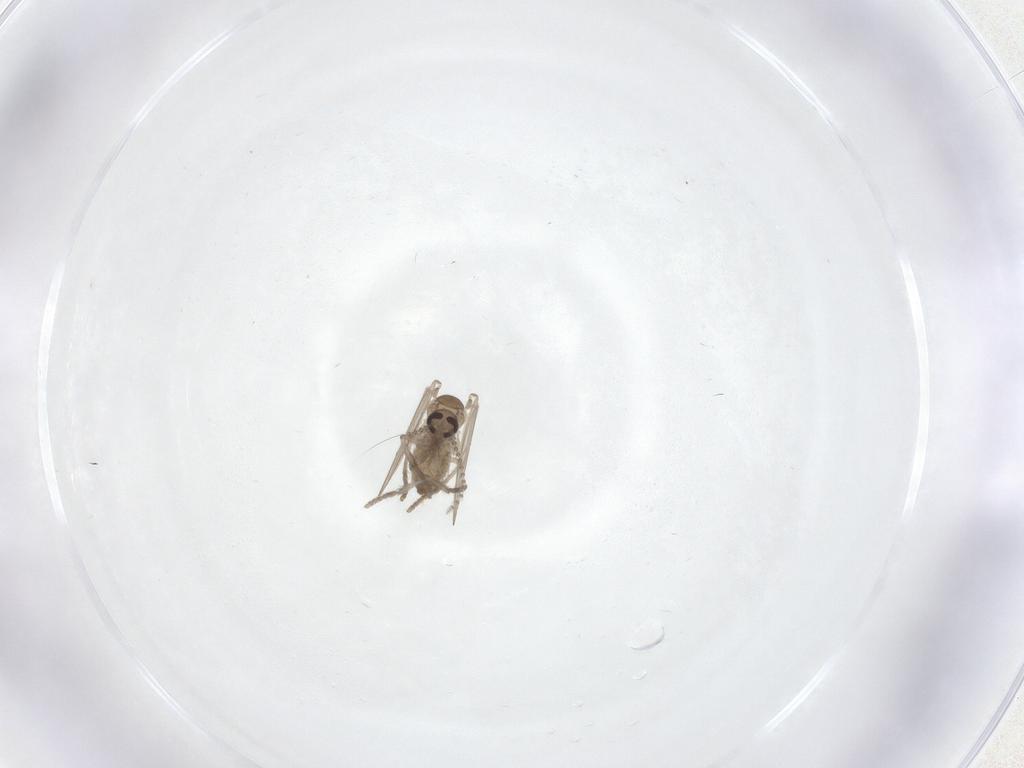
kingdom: Animalia
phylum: Arthropoda
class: Insecta
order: Diptera
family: Psychodidae
